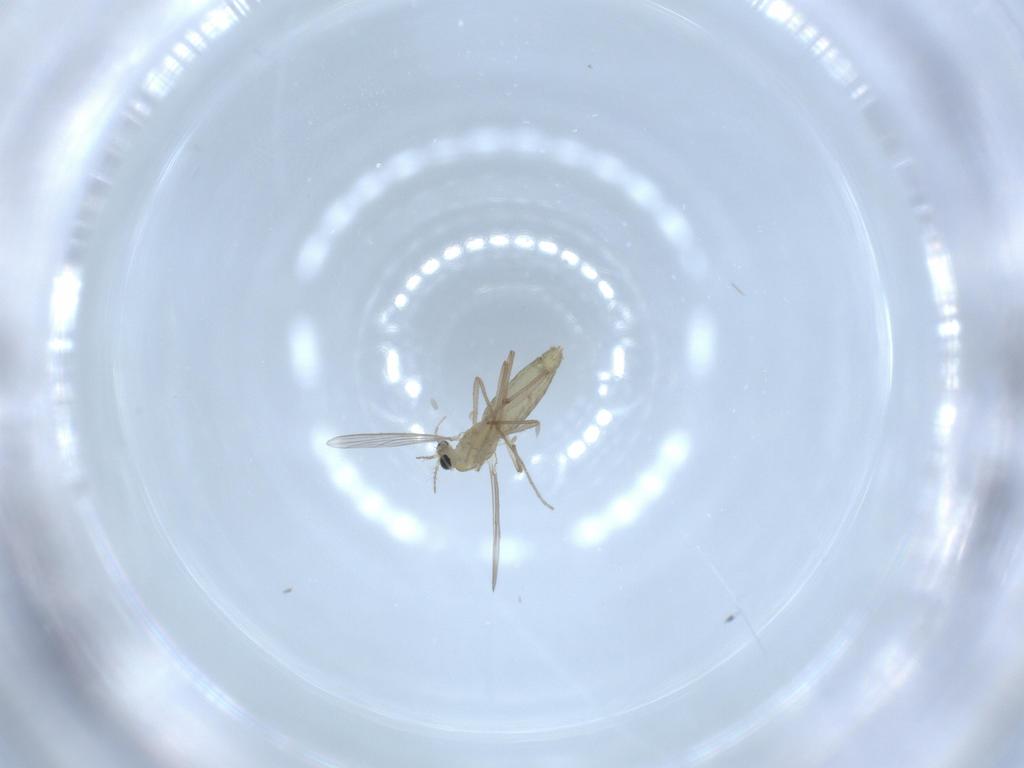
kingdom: Animalia
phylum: Arthropoda
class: Insecta
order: Diptera
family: Chironomidae
